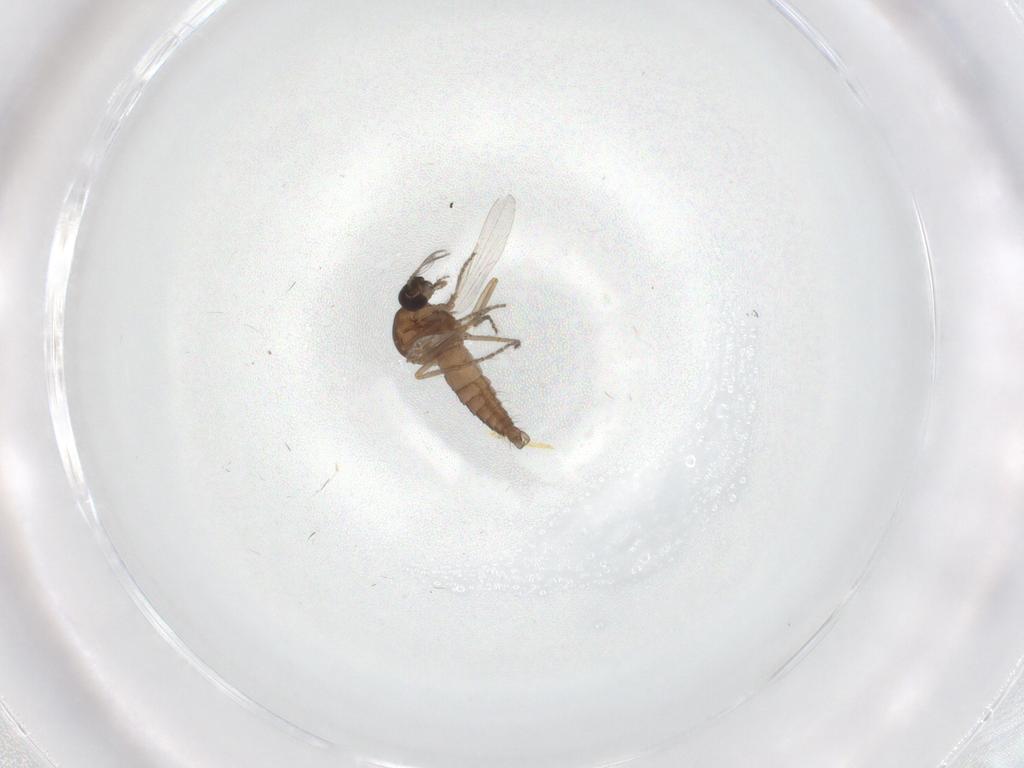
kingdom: Animalia
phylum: Arthropoda
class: Insecta
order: Diptera
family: Ceratopogonidae
